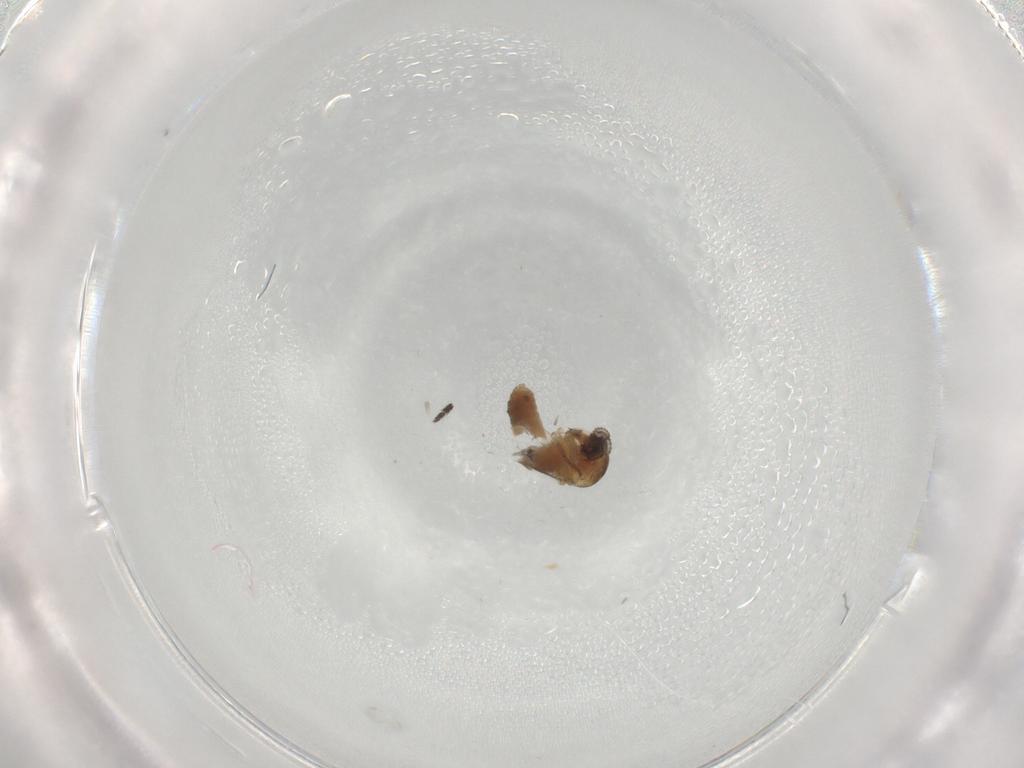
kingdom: Animalia
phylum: Arthropoda
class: Insecta
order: Diptera
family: Sciaridae
